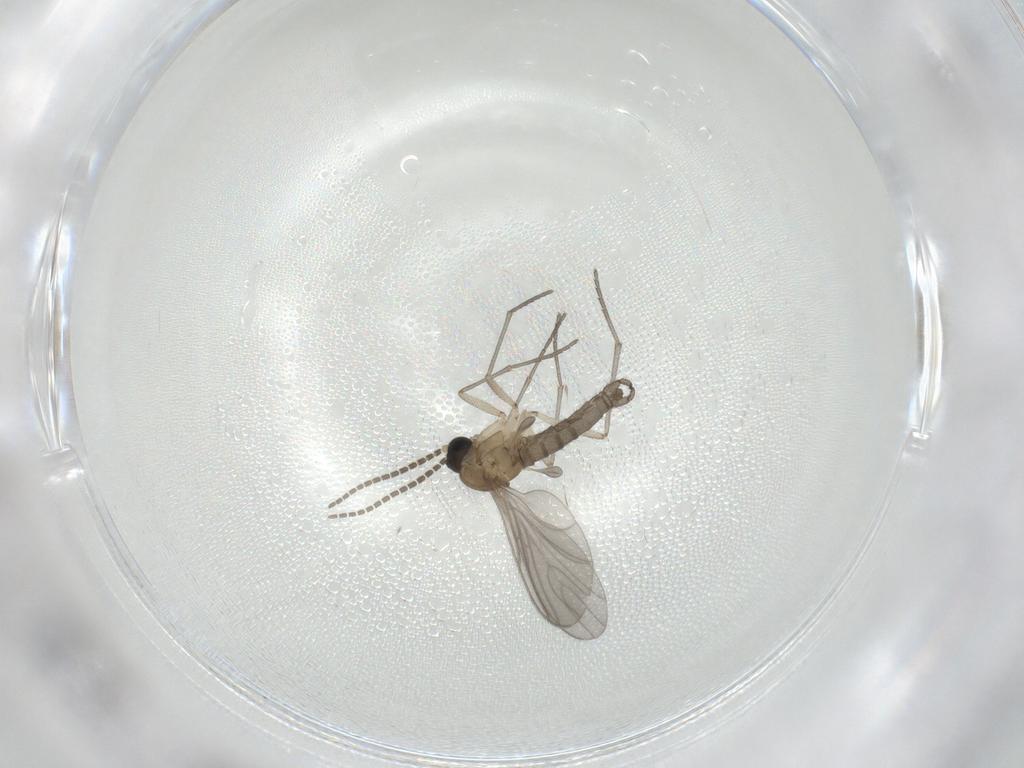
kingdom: Animalia
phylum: Arthropoda
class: Insecta
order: Diptera
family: Sciaridae
